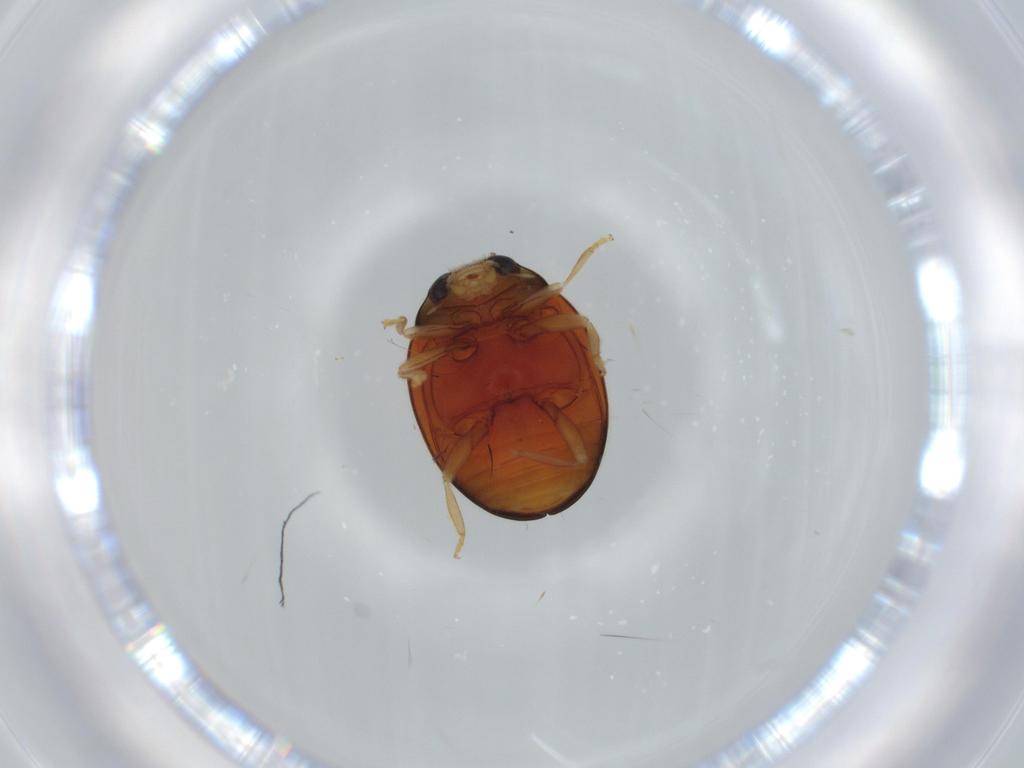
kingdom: Animalia
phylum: Arthropoda
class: Insecta
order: Coleoptera
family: Coccinellidae
